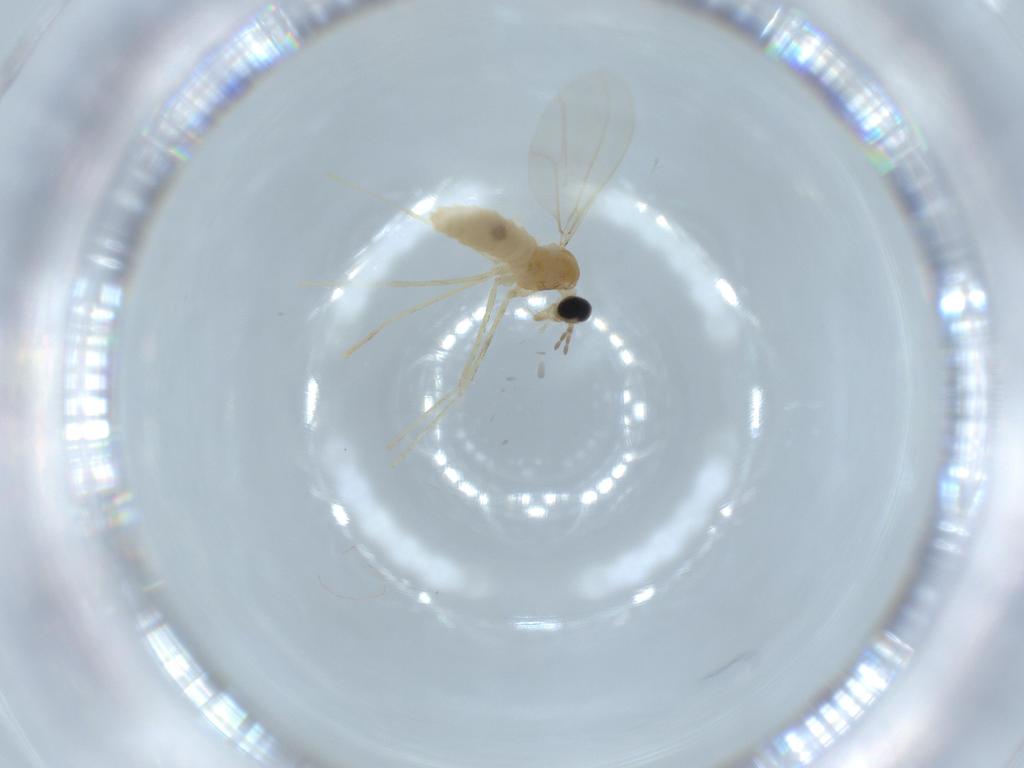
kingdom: Animalia
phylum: Arthropoda
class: Insecta
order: Diptera
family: Cecidomyiidae
